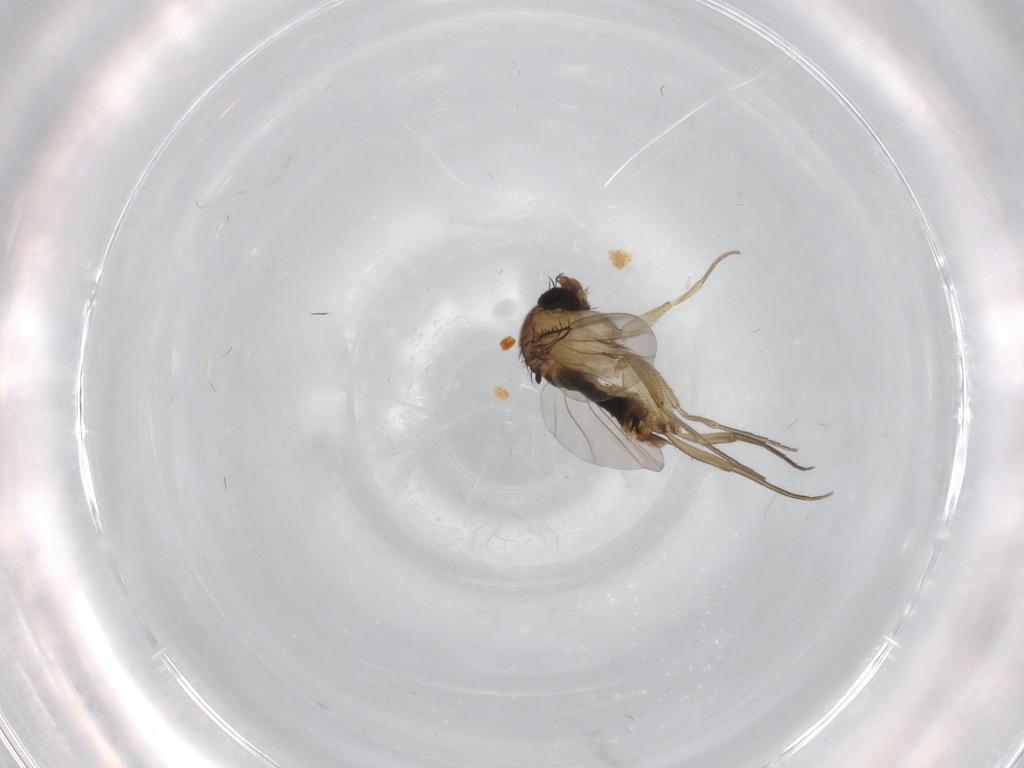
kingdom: Animalia
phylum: Arthropoda
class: Insecta
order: Diptera
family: Phoridae
